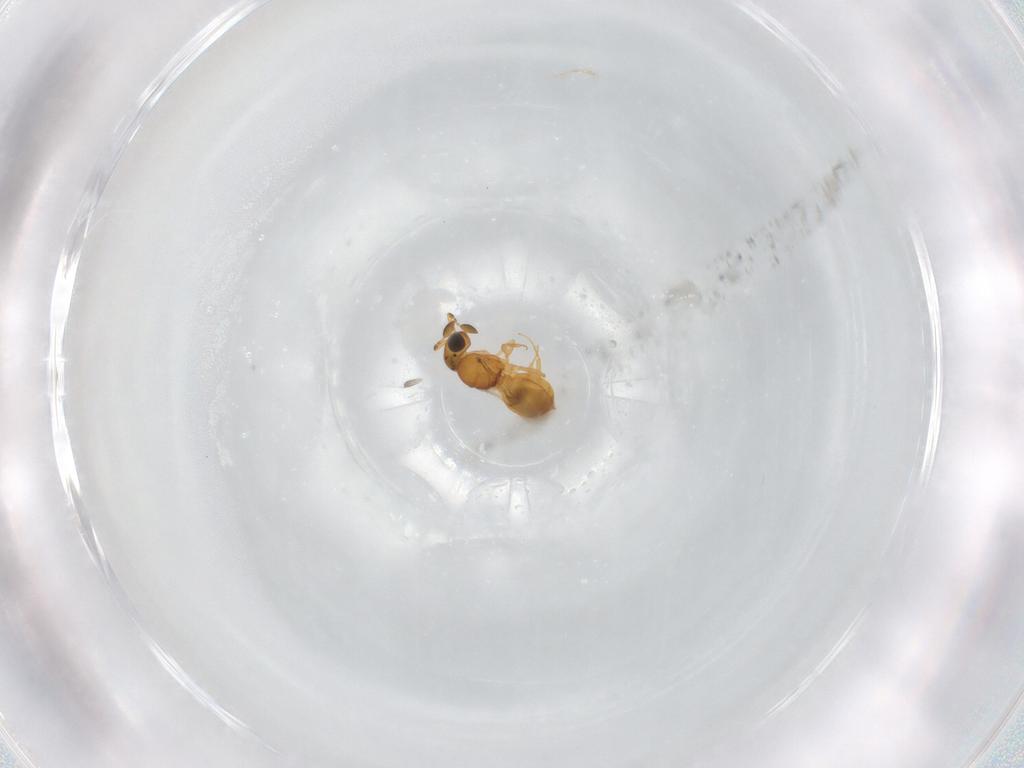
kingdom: Animalia
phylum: Arthropoda
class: Insecta
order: Hymenoptera
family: Scelionidae
